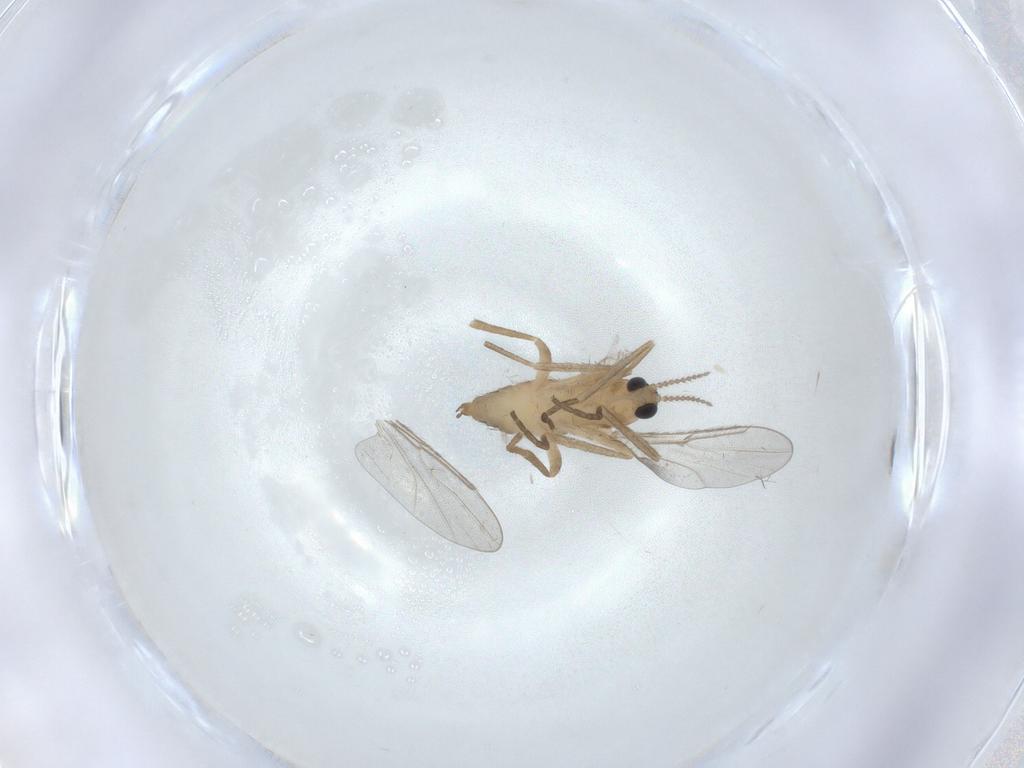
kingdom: Animalia
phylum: Arthropoda
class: Insecta
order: Diptera
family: Cecidomyiidae
